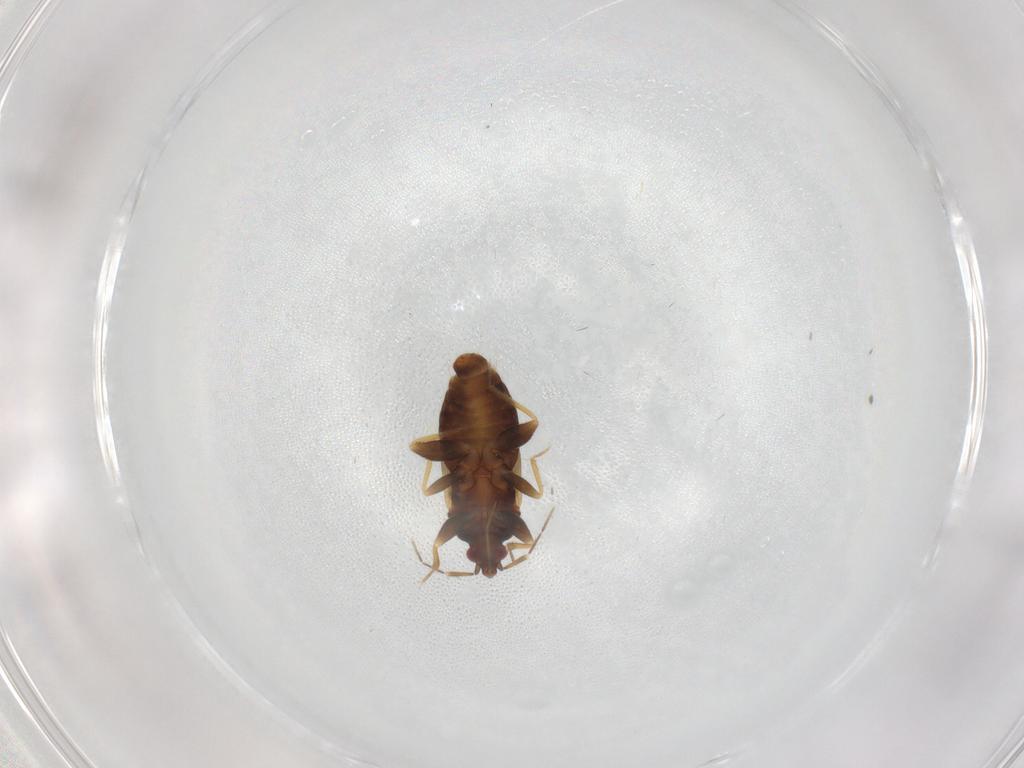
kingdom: Animalia
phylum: Arthropoda
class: Insecta
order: Hemiptera
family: Anthocoridae
